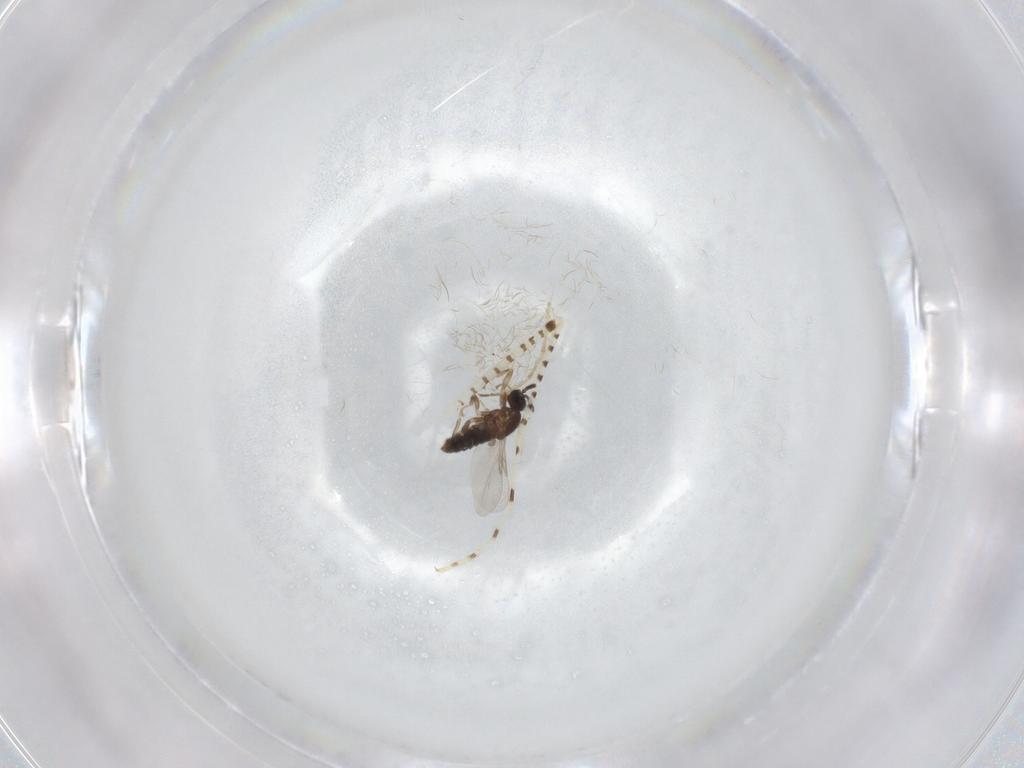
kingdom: Animalia
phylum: Arthropoda
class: Insecta
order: Diptera
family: Chaoboridae
